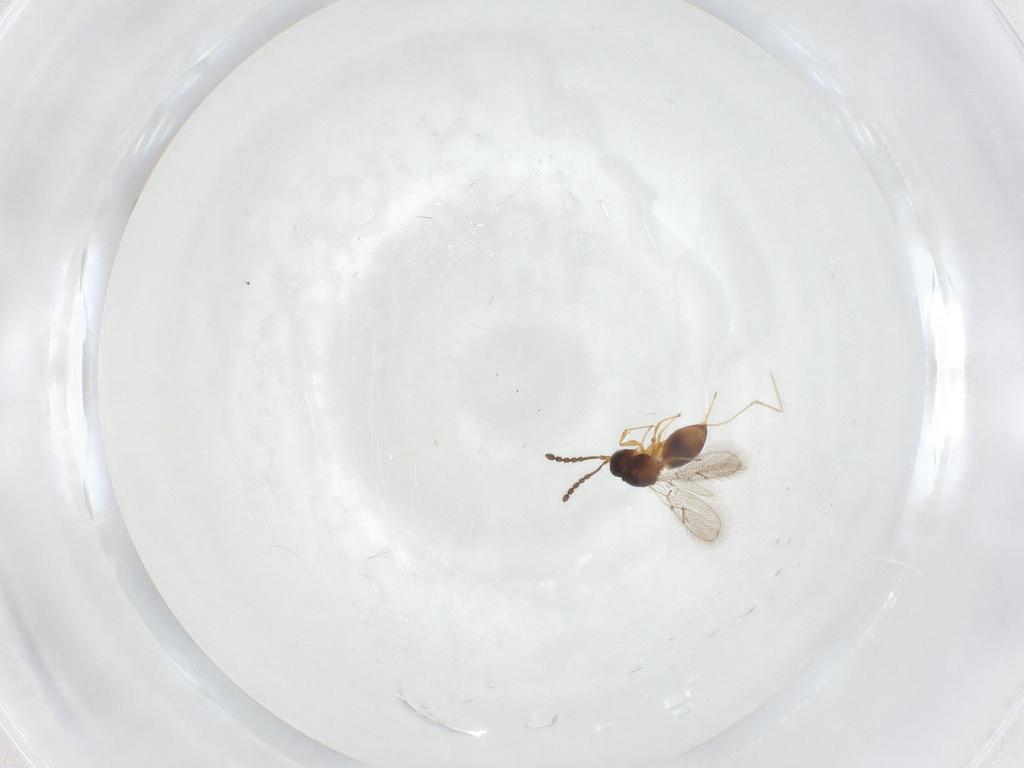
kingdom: Animalia
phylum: Arthropoda
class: Insecta
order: Hymenoptera
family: Figitidae
